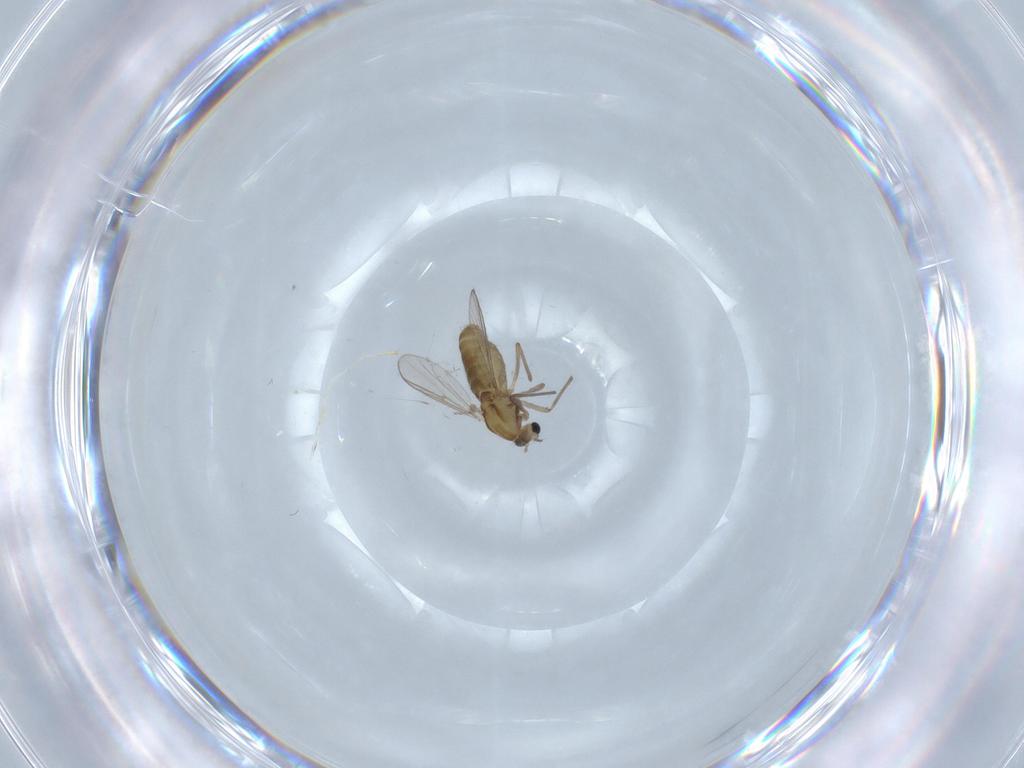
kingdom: Animalia
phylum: Arthropoda
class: Insecta
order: Diptera
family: Chironomidae
